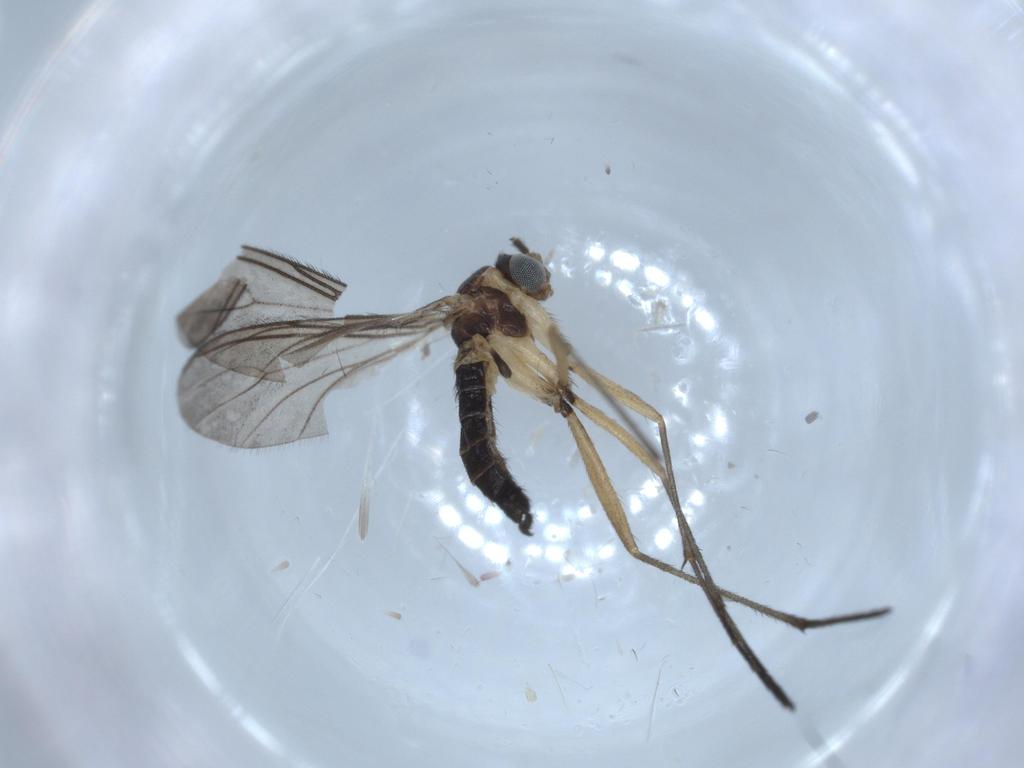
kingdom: Animalia
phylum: Arthropoda
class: Insecta
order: Diptera
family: Sciaridae
